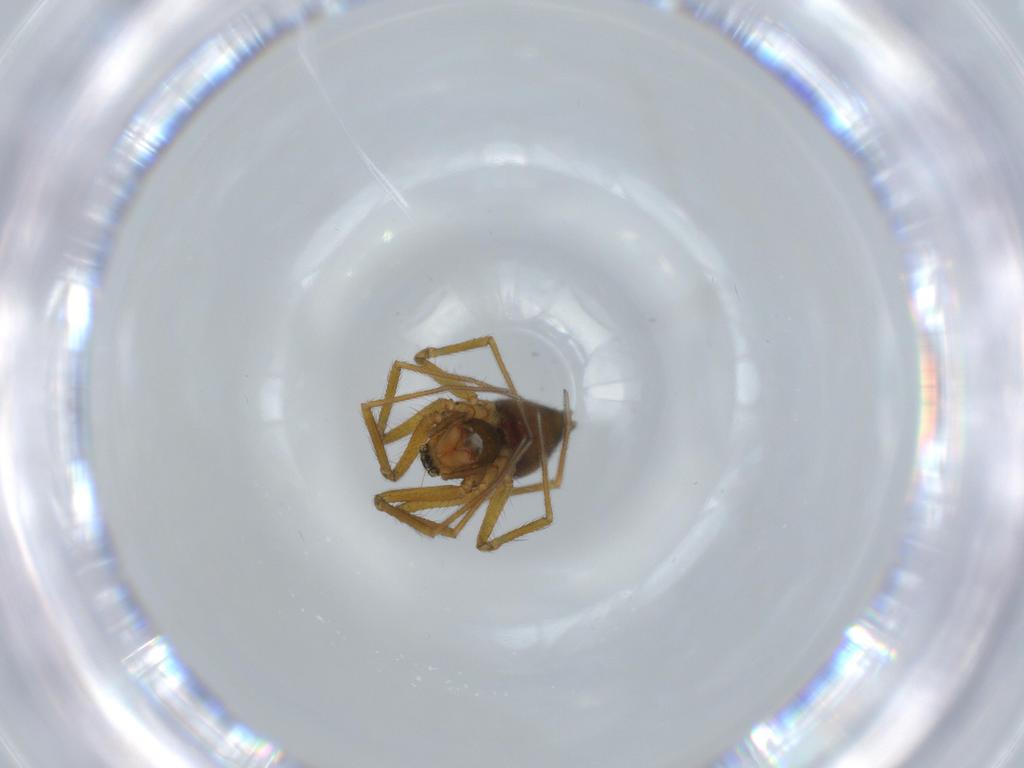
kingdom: Animalia
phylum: Arthropoda
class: Arachnida
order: Araneae
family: Linyphiidae
